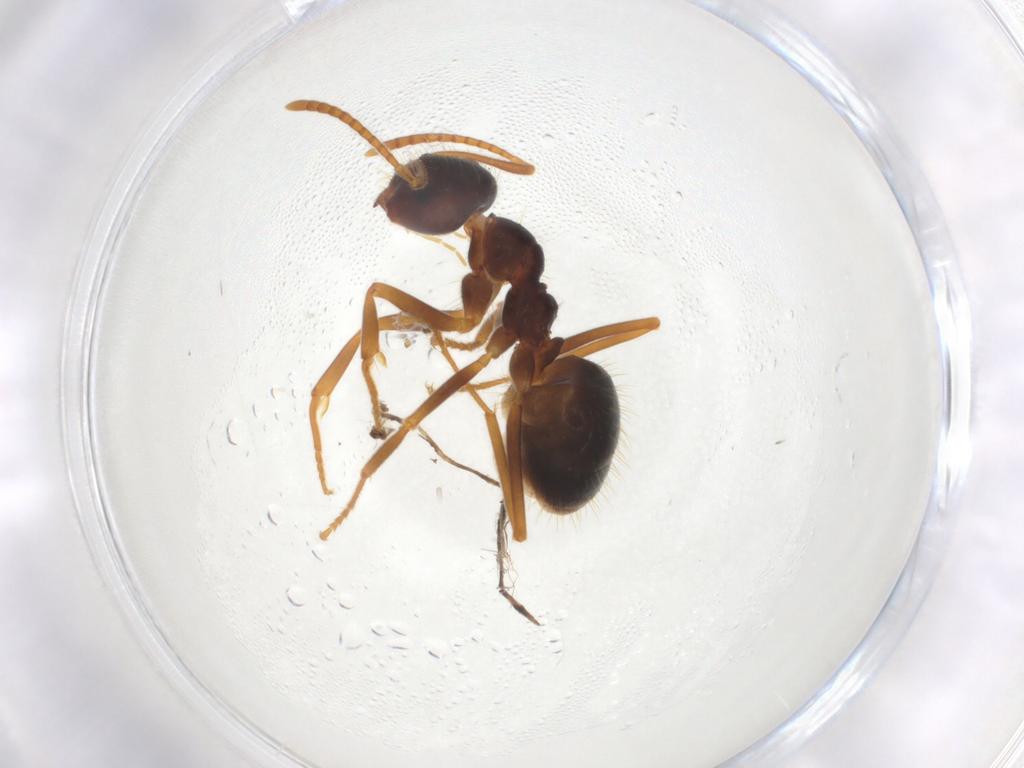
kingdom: Animalia
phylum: Arthropoda
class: Insecta
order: Hymenoptera
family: Formicidae
